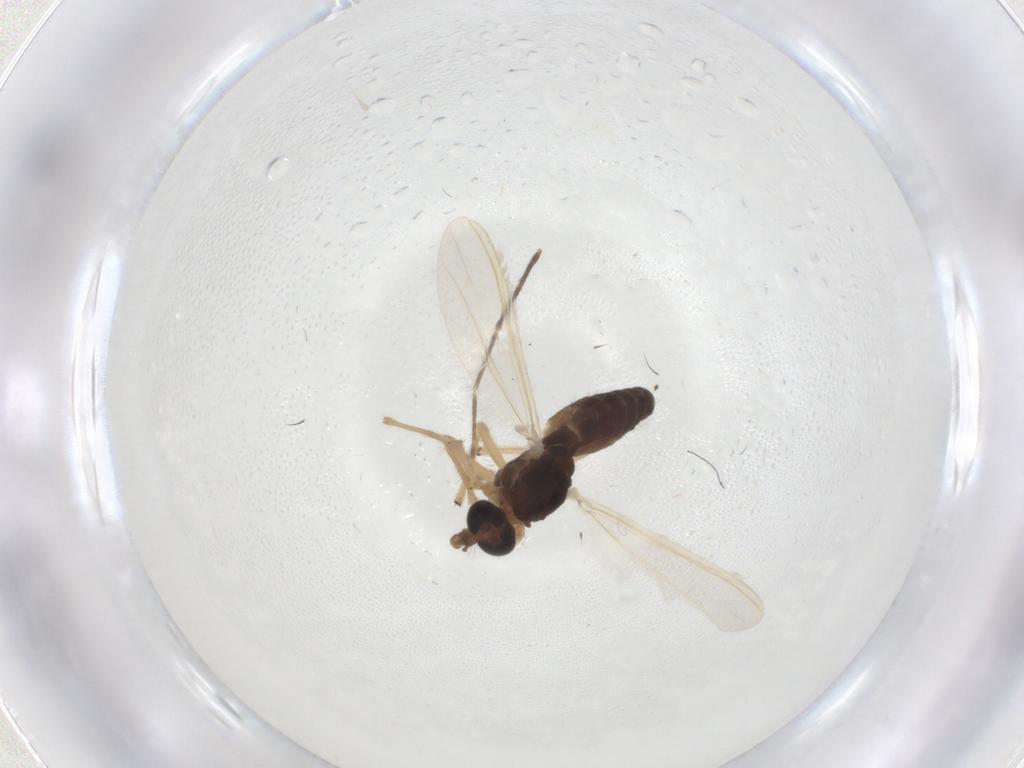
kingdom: Animalia
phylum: Arthropoda
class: Insecta
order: Diptera
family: Chironomidae
